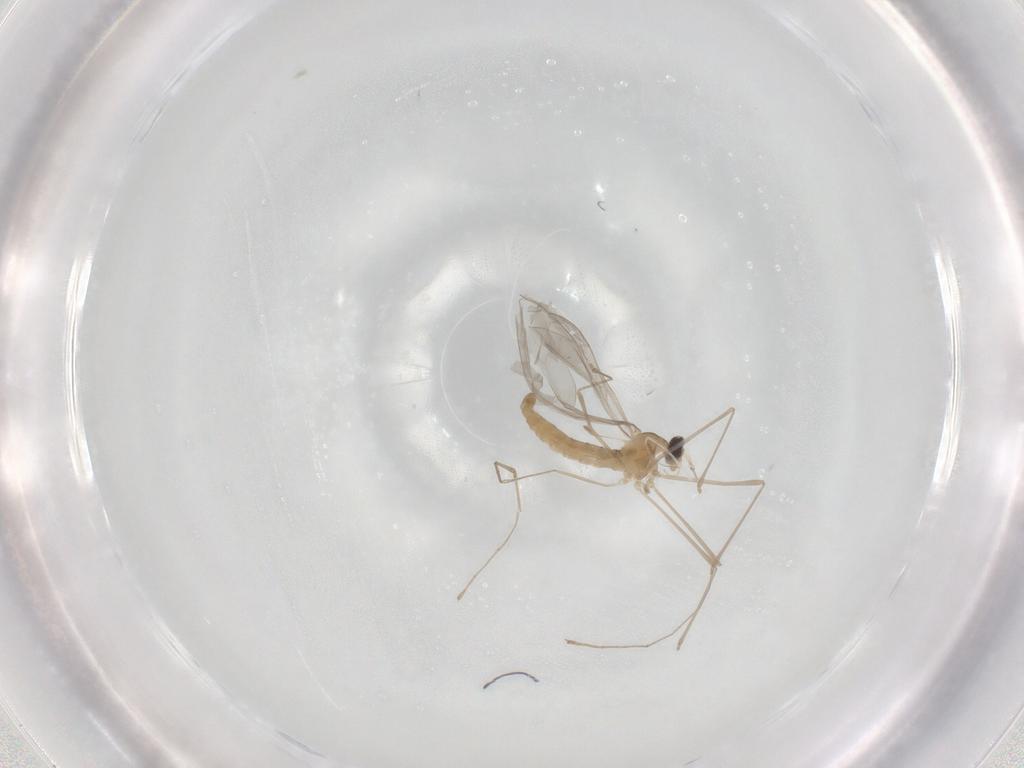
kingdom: Animalia
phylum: Arthropoda
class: Insecta
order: Diptera
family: Cecidomyiidae
